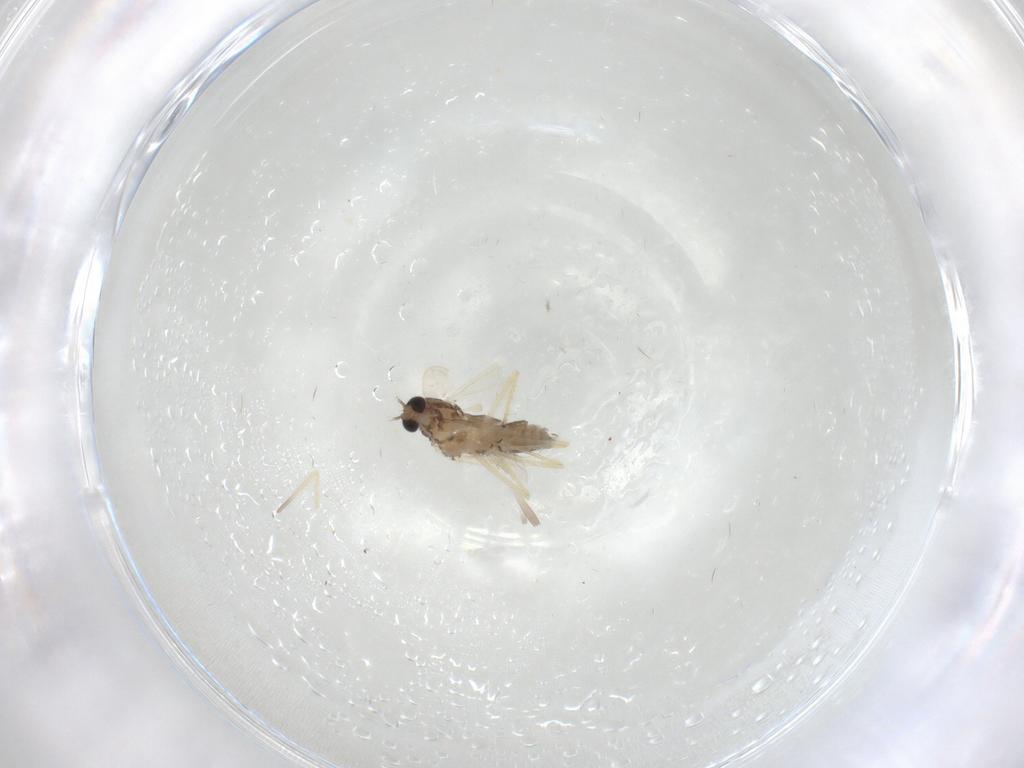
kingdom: Animalia
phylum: Arthropoda
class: Insecta
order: Diptera
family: Chironomidae
